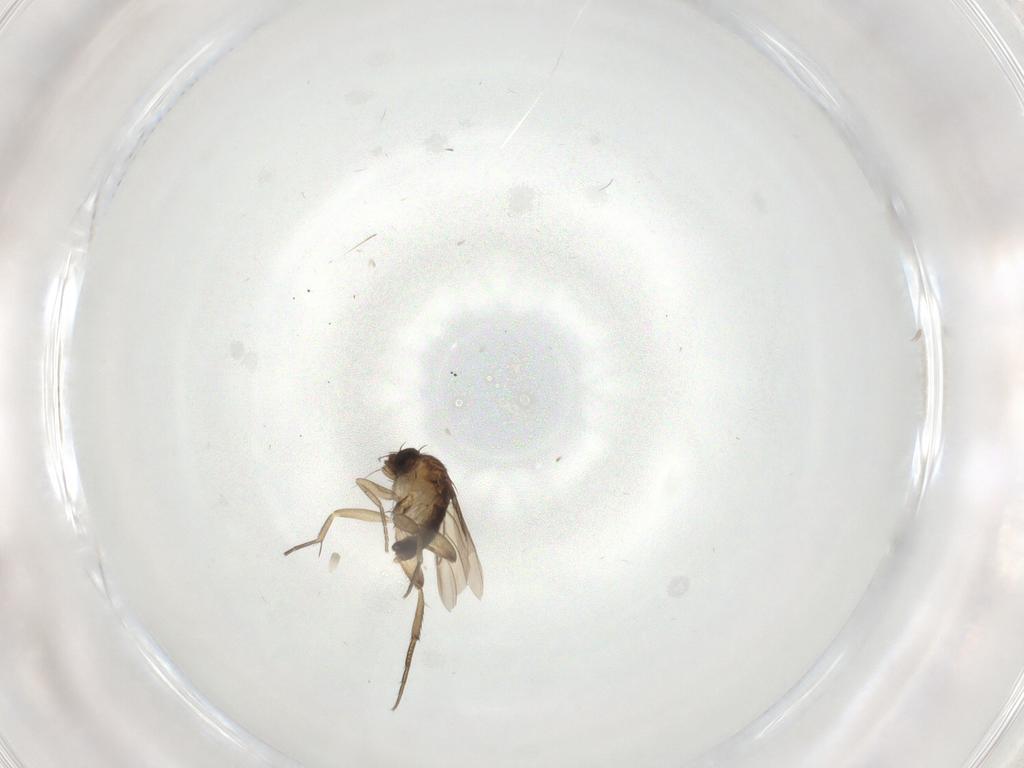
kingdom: Animalia
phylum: Arthropoda
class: Insecta
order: Diptera
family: Phoridae
